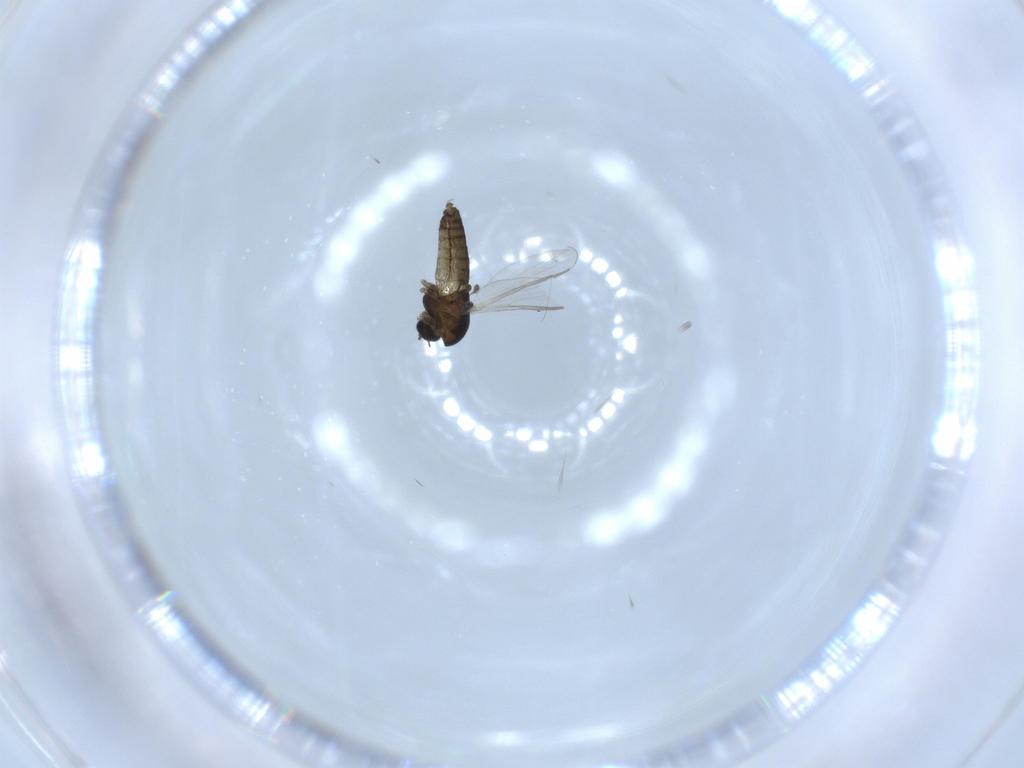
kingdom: Animalia
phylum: Arthropoda
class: Insecta
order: Diptera
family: Chironomidae
